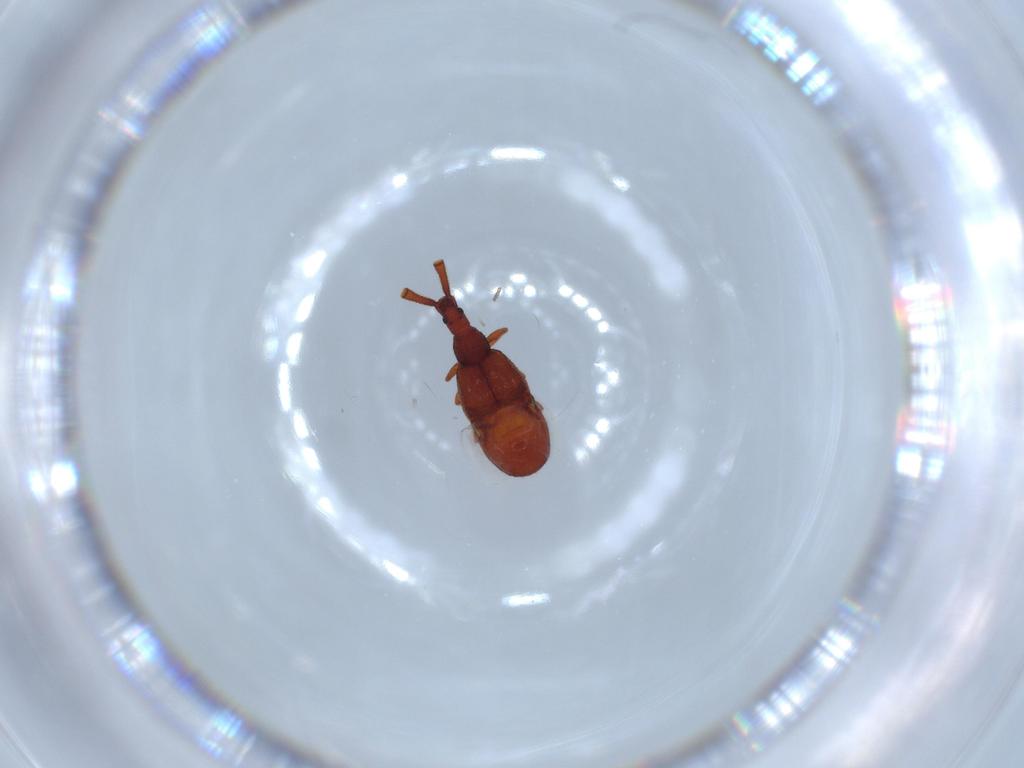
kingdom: Animalia
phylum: Arthropoda
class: Insecta
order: Coleoptera
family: Staphylinidae
